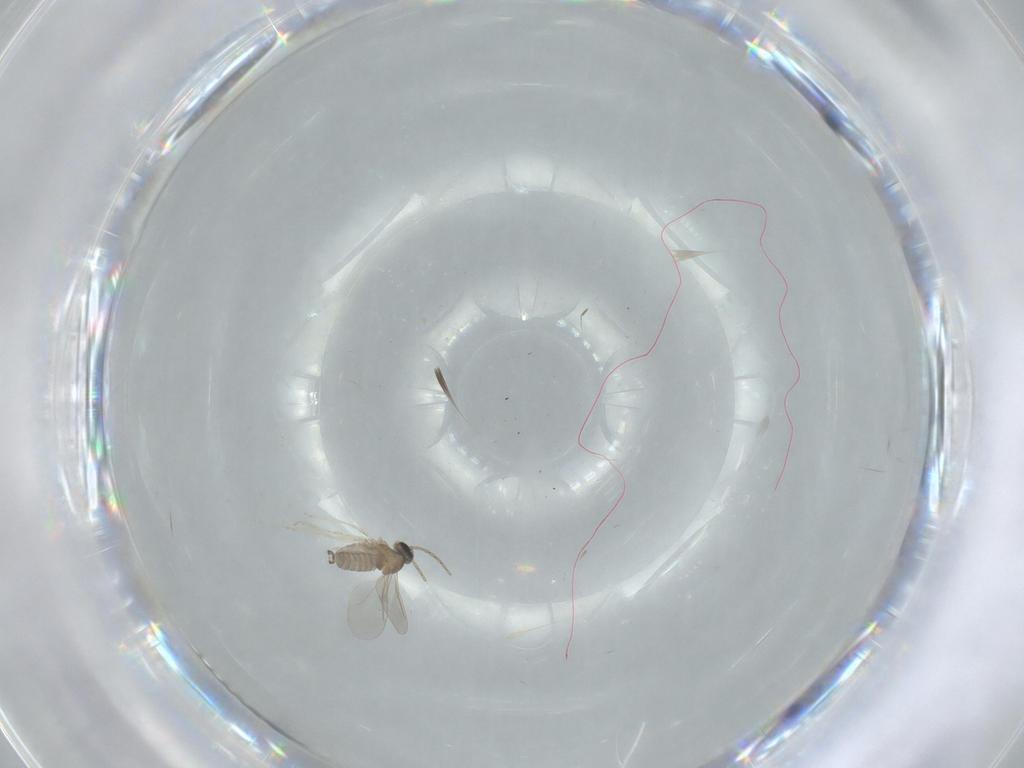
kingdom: Animalia
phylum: Arthropoda
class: Insecta
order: Diptera
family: Cecidomyiidae
